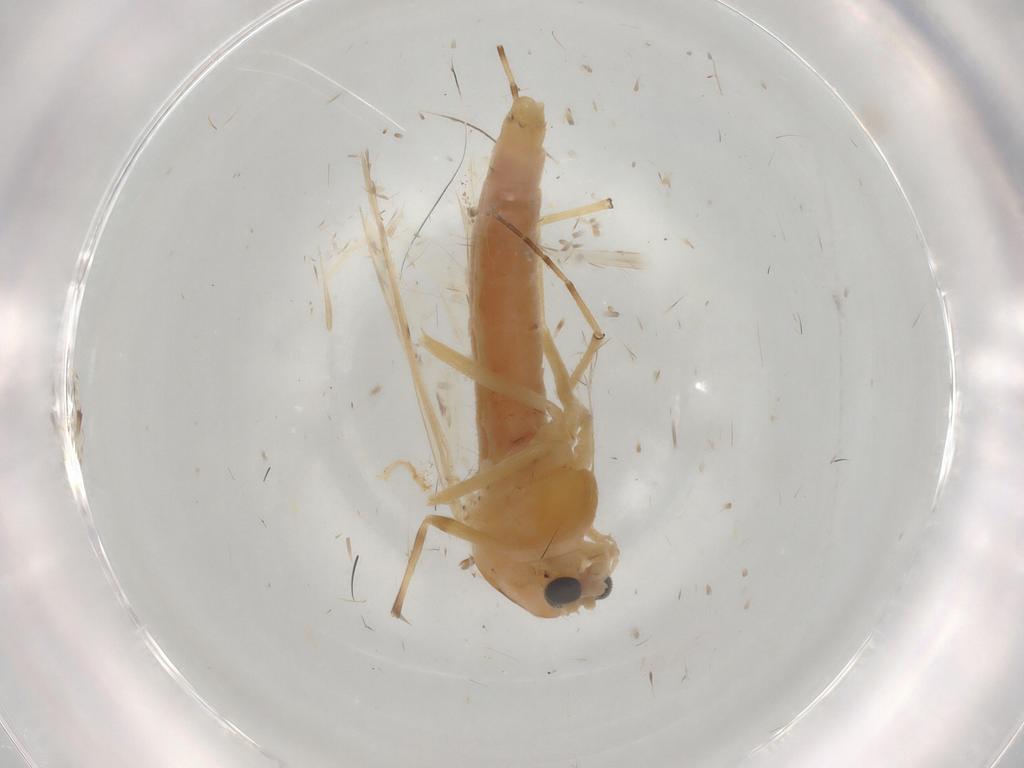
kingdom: Animalia
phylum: Arthropoda
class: Insecta
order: Diptera
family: Chironomidae
